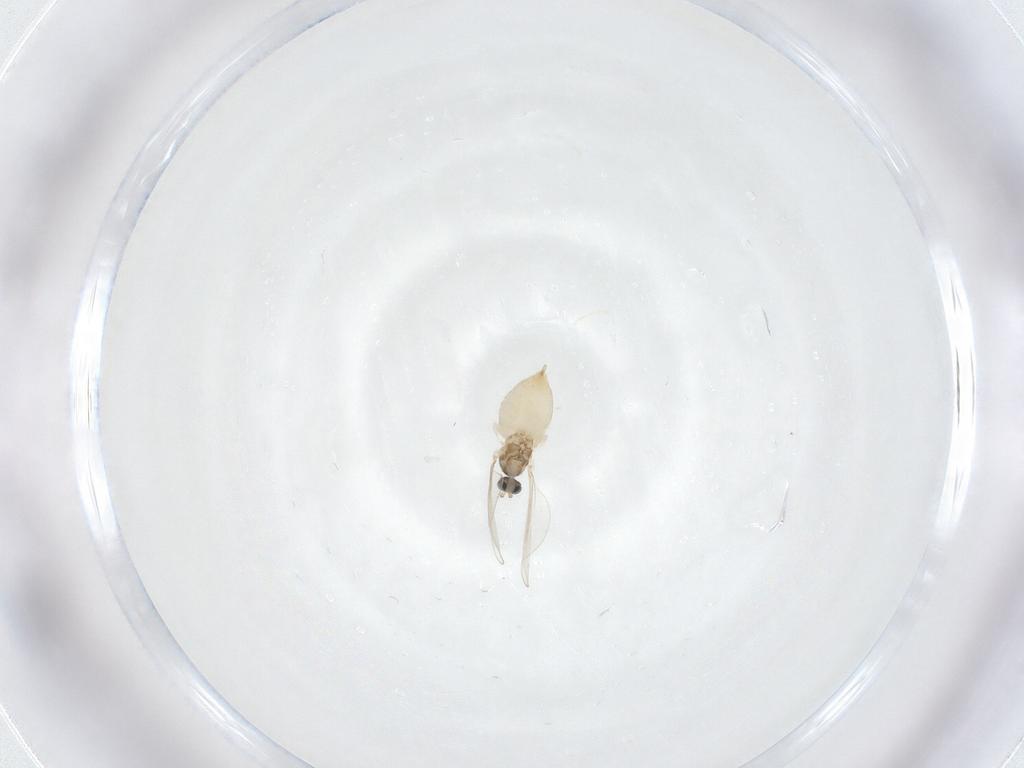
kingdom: Animalia
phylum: Arthropoda
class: Insecta
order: Diptera
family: Cecidomyiidae
